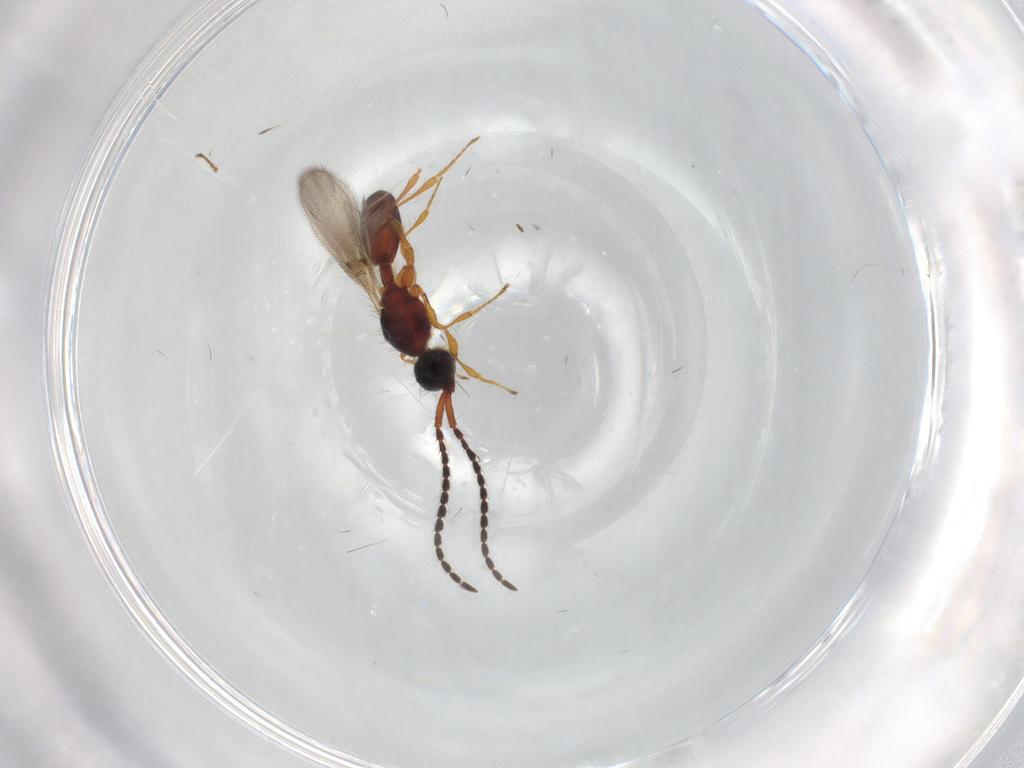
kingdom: Animalia
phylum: Arthropoda
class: Insecta
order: Hymenoptera
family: Diapriidae
